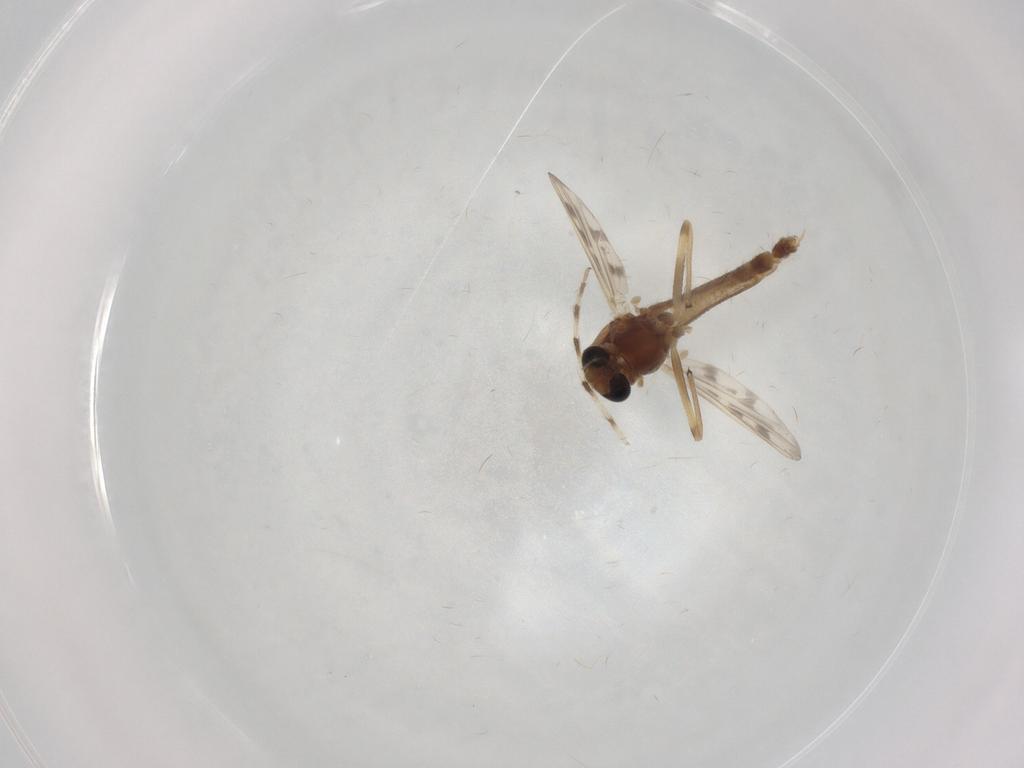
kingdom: Animalia
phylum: Arthropoda
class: Insecta
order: Diptera
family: Chironomidae
